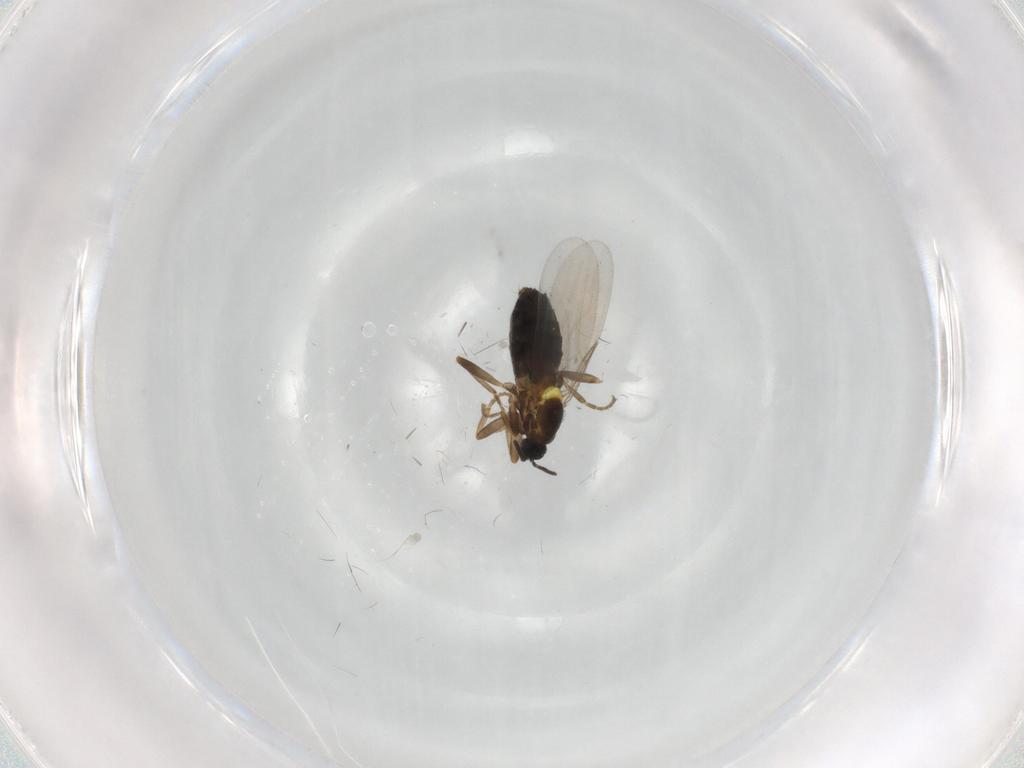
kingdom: Animalia
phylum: Arthropoda
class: Insecta
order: Diptera
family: Scatopsidae
